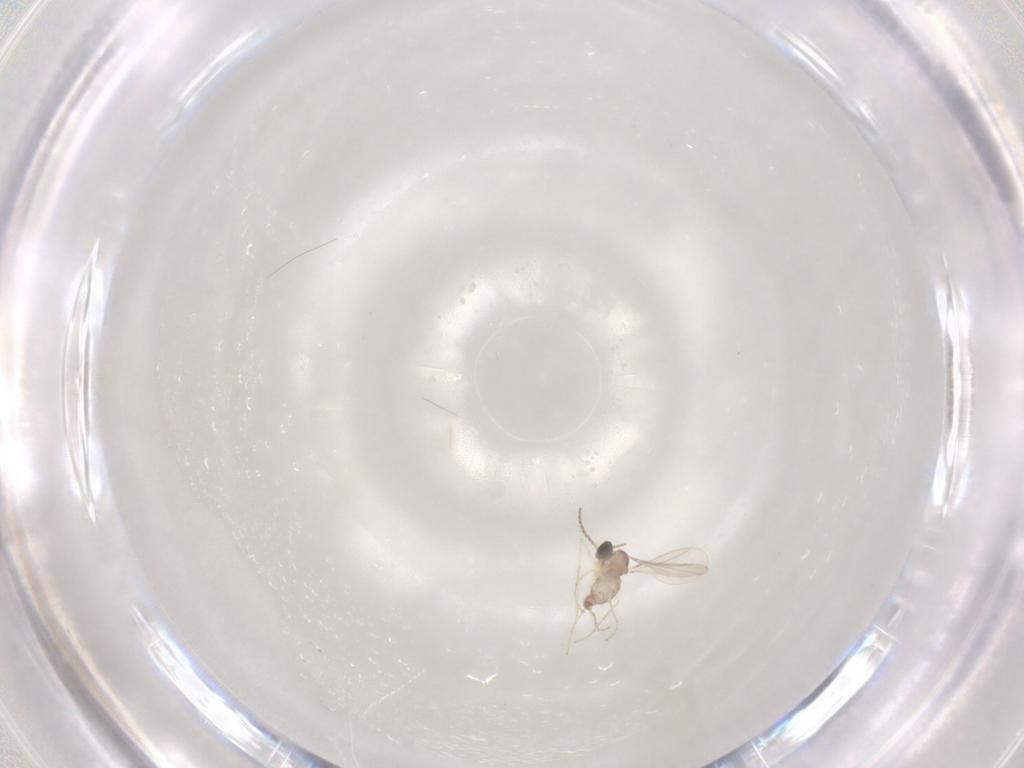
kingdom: Animalia
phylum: Arthropoda
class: Insecta
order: Diptera
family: Cecidomyiidae
